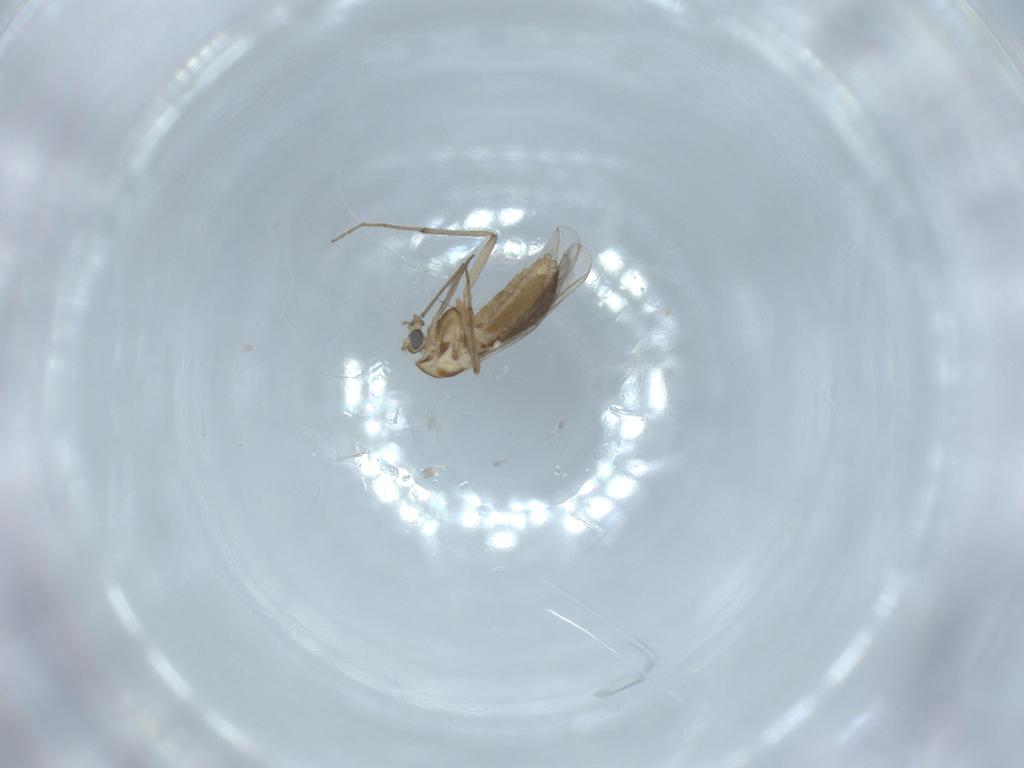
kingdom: Animalia
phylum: Arthropoda
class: Insecta
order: Diptera
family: Chironomidae
